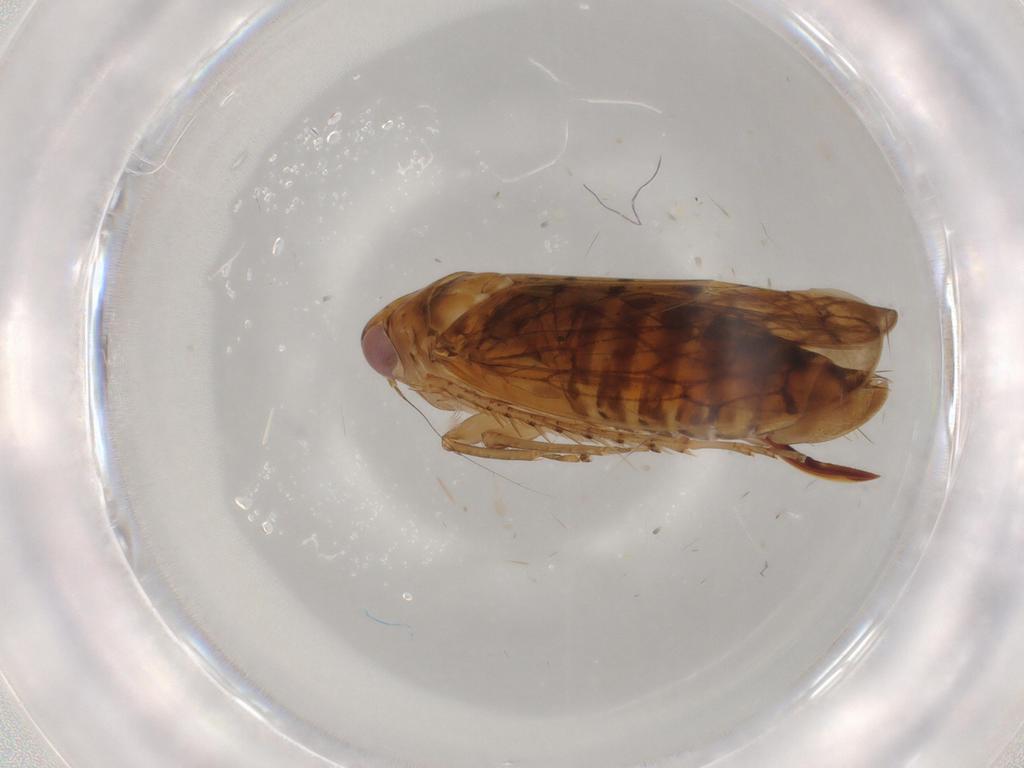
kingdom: Animalia
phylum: Arthropoda
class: Insecta
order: Hemiptera
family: Cicadellidae
